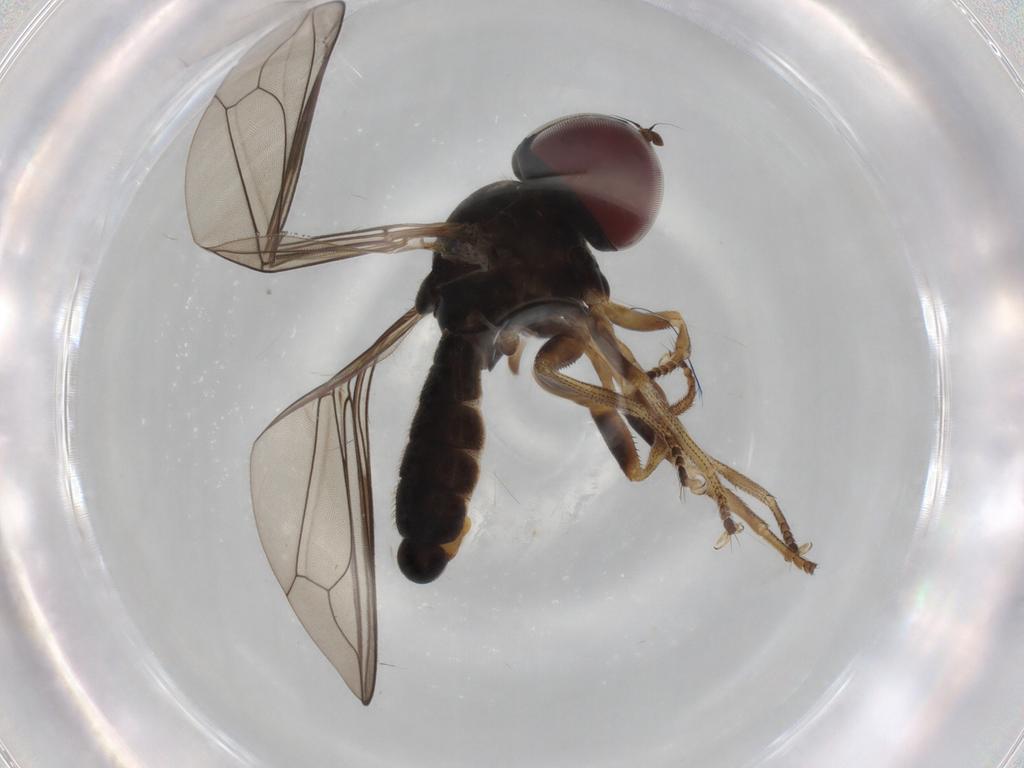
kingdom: Animalia
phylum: Arthropoda
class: Insecta
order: Diptera
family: Pipunculidae
